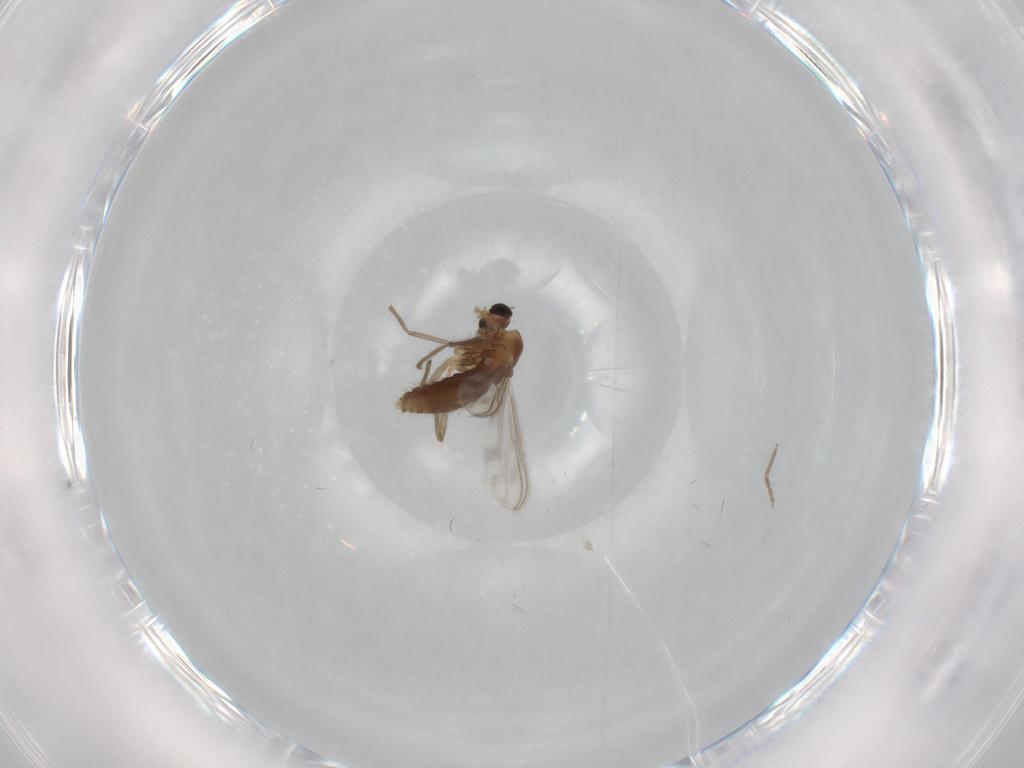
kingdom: Animalia
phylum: Arthropoda
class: Insecta
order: Diptera
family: Chironomidae
